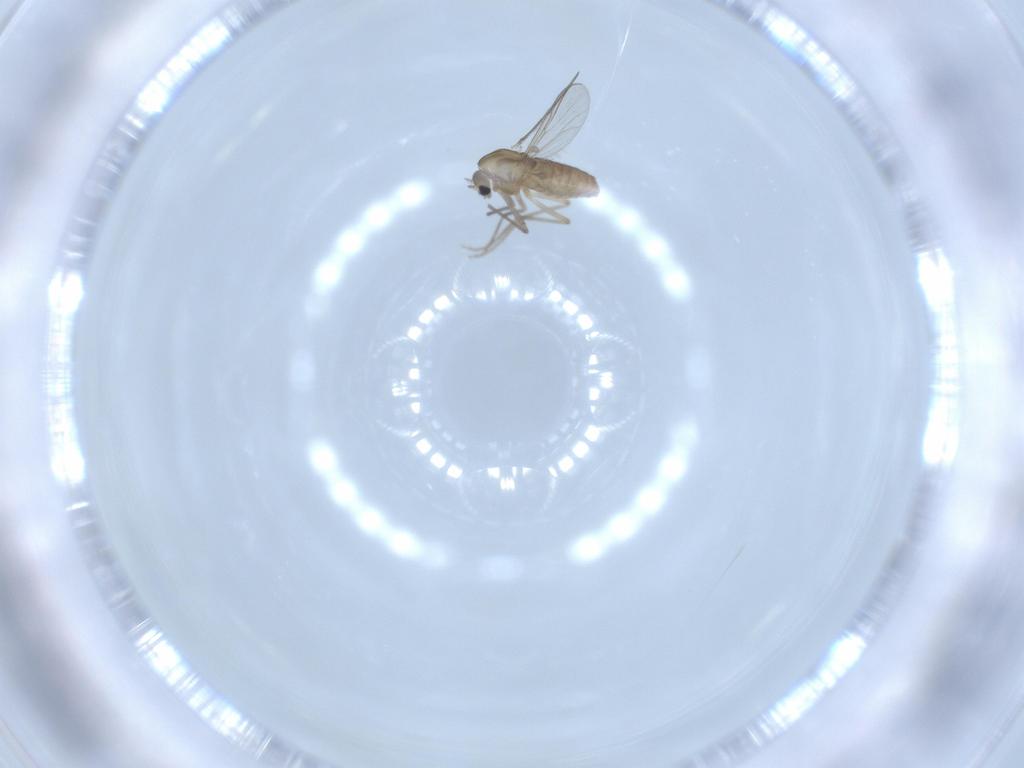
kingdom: Animalia
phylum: Arthropoda
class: Insecta
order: Diptera
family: Chironomidae
